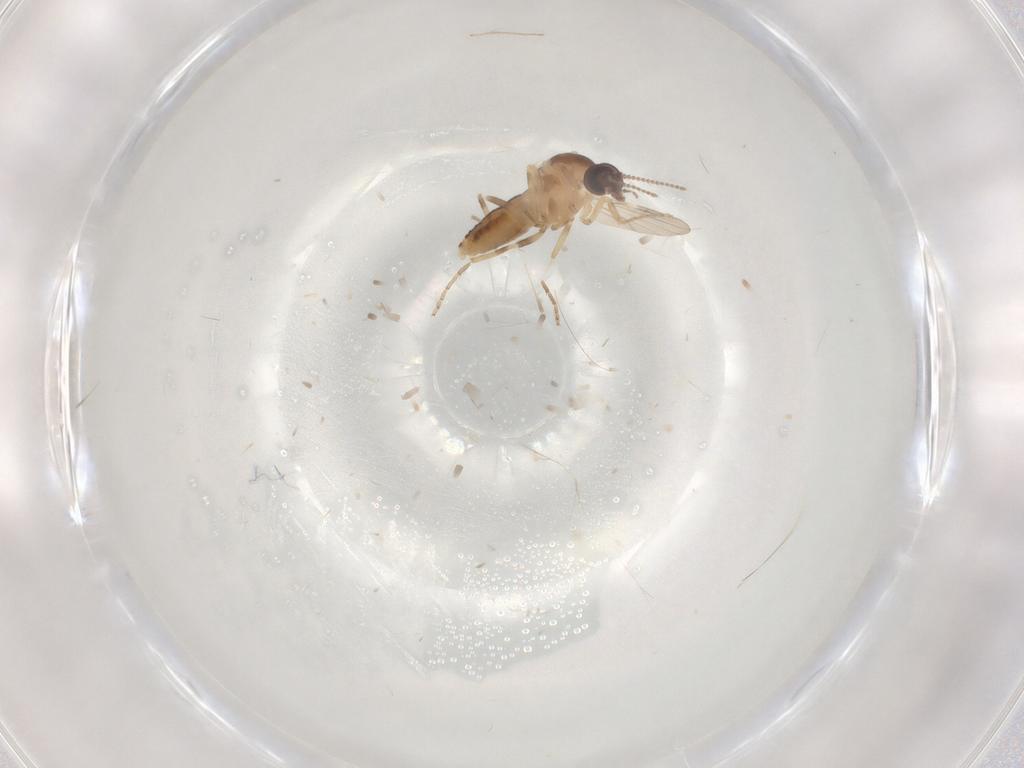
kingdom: Animalia
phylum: Arthropoda
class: Insecta
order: Diptera
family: Ceratopogonidae
